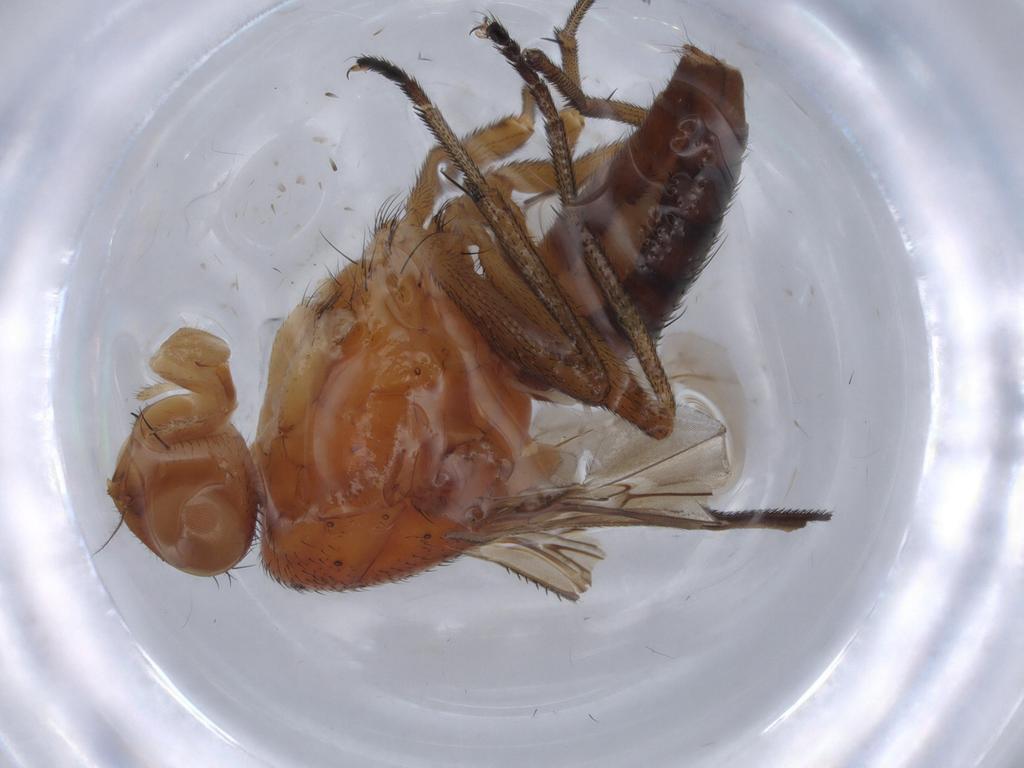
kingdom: Animalia
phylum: Arthropoda
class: Insecta
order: Diptera
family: Heleomyzidae
